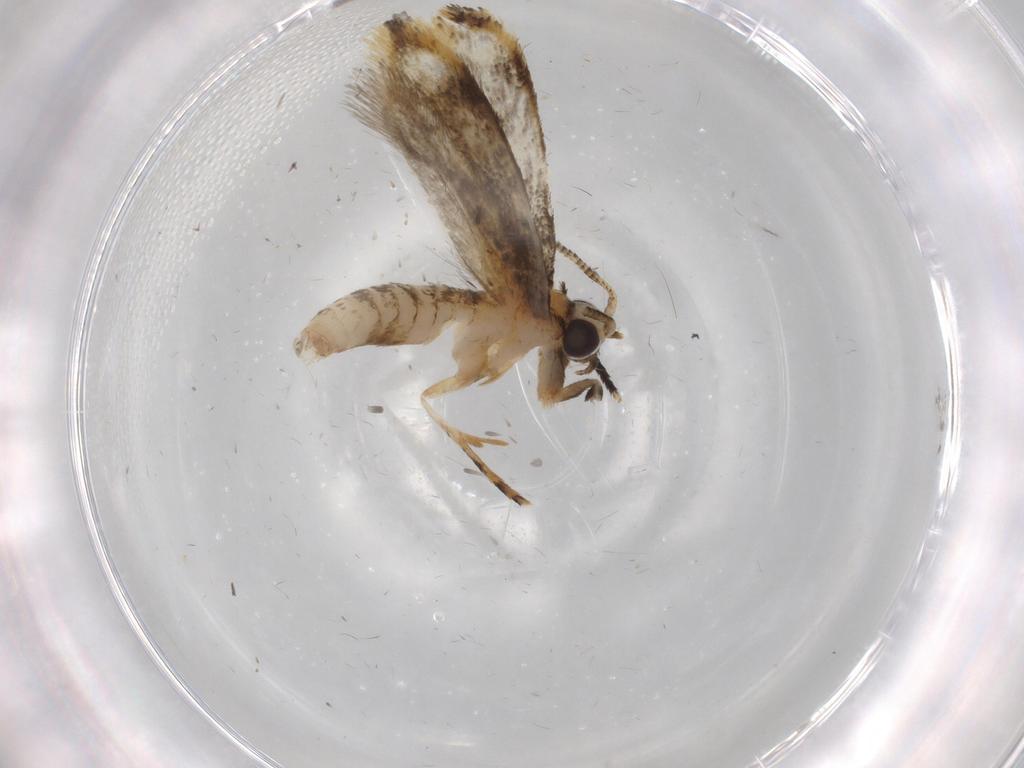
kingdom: Animalia
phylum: Arthropoda
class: Insecta
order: Lepidoptera
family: Tineidae
